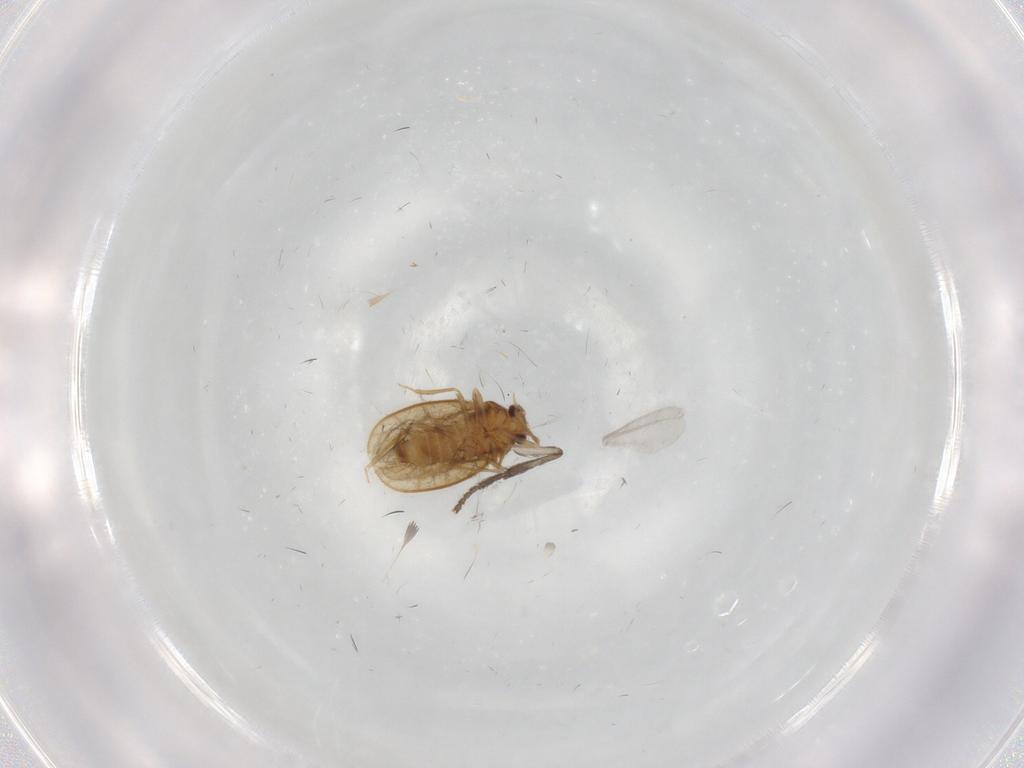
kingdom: Animalia
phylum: Arthropoda
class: Insecta
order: Hemiptera
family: Schizopteridae
